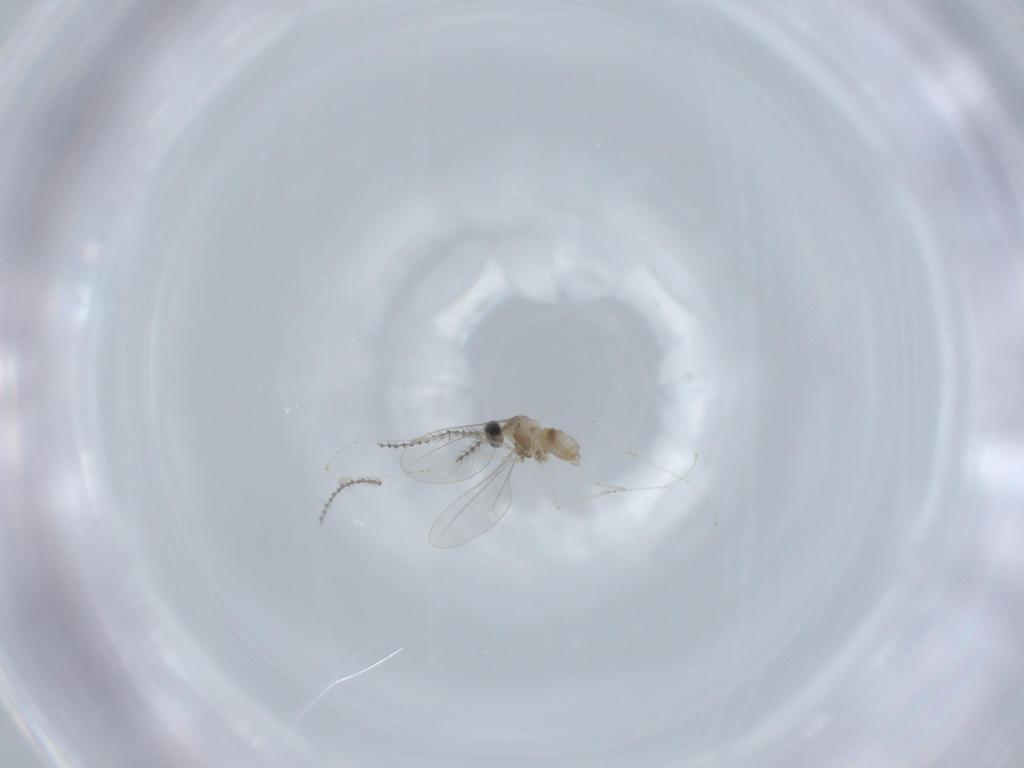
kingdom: Animalia
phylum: Arthropoda
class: Insecta
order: Diptera
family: Cecidomyiidae
